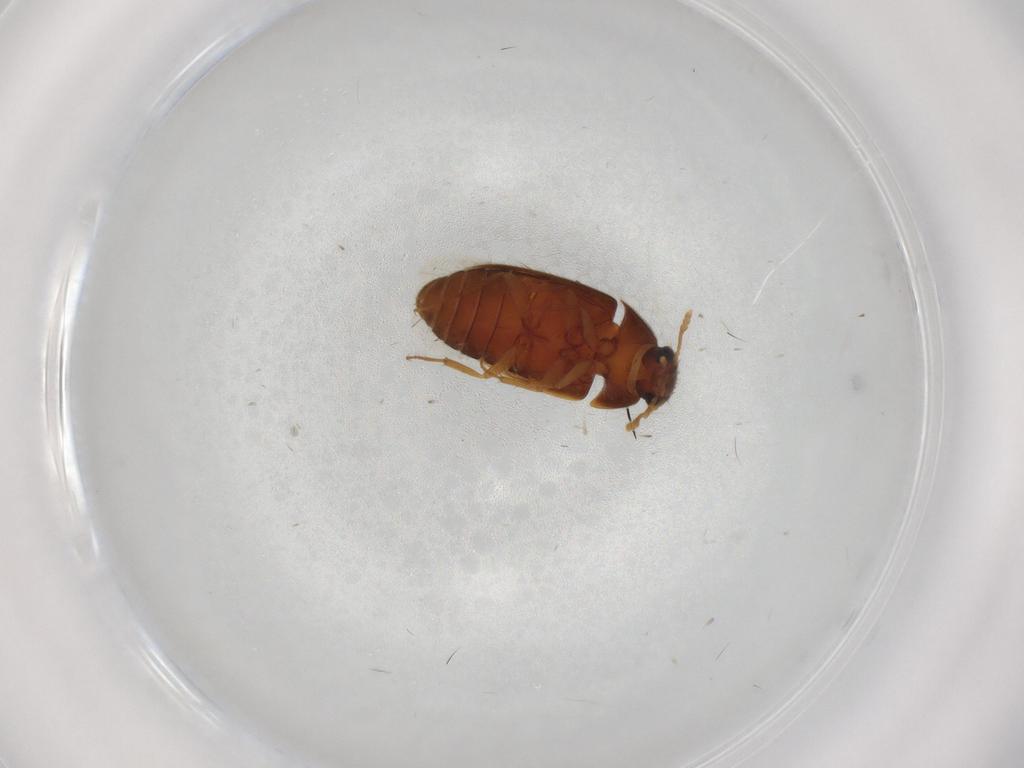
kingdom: Animalia
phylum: Arthropoda
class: Insecta
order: Coleoptera
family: Mycetophagidae
